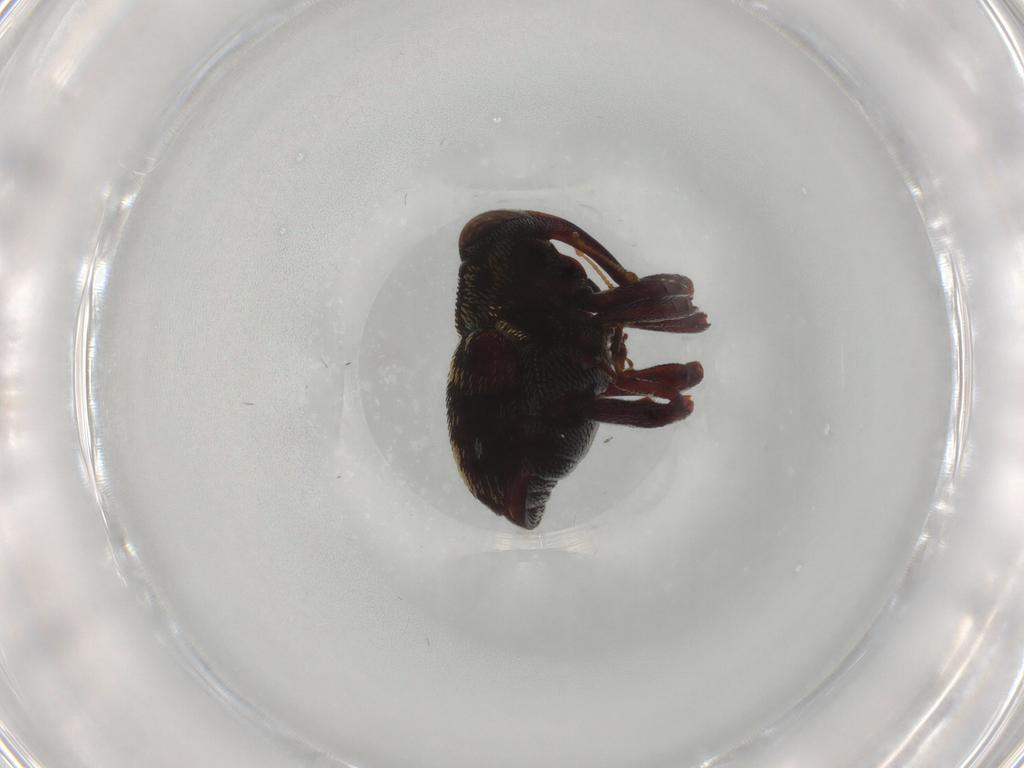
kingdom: Animalia
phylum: Arthropoda
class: Insecta
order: Coleoptera
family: Curculionidae
